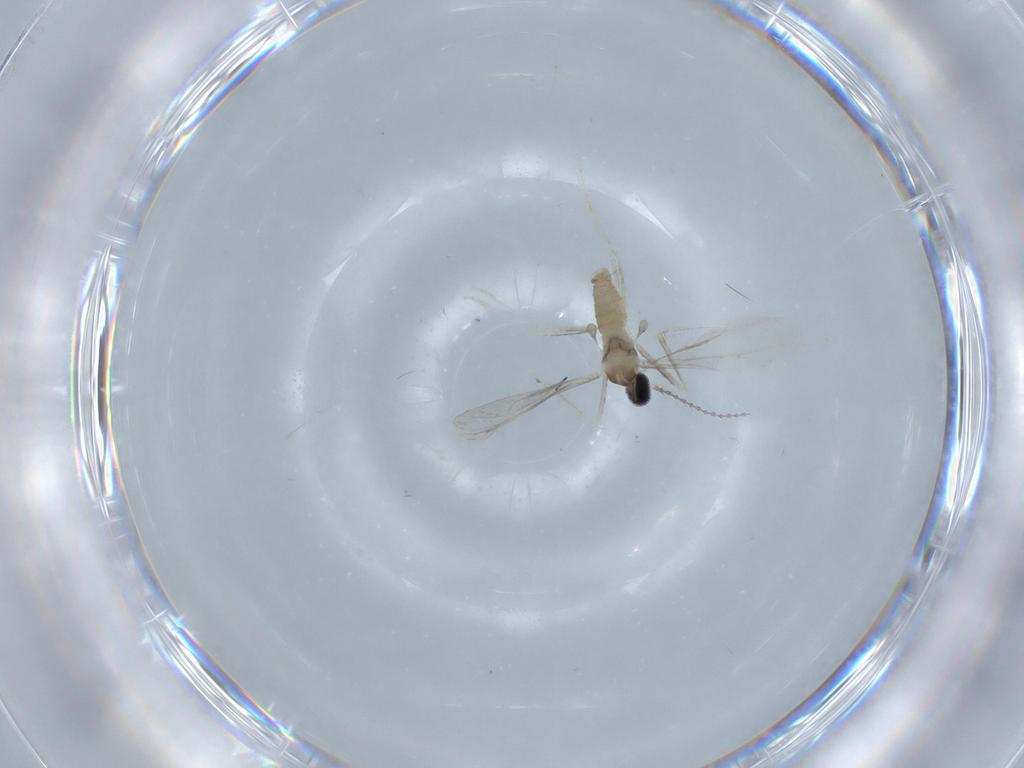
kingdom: Animalia
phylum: Arthropoda
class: Insecta
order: Diptera
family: Cecidomyiidae
